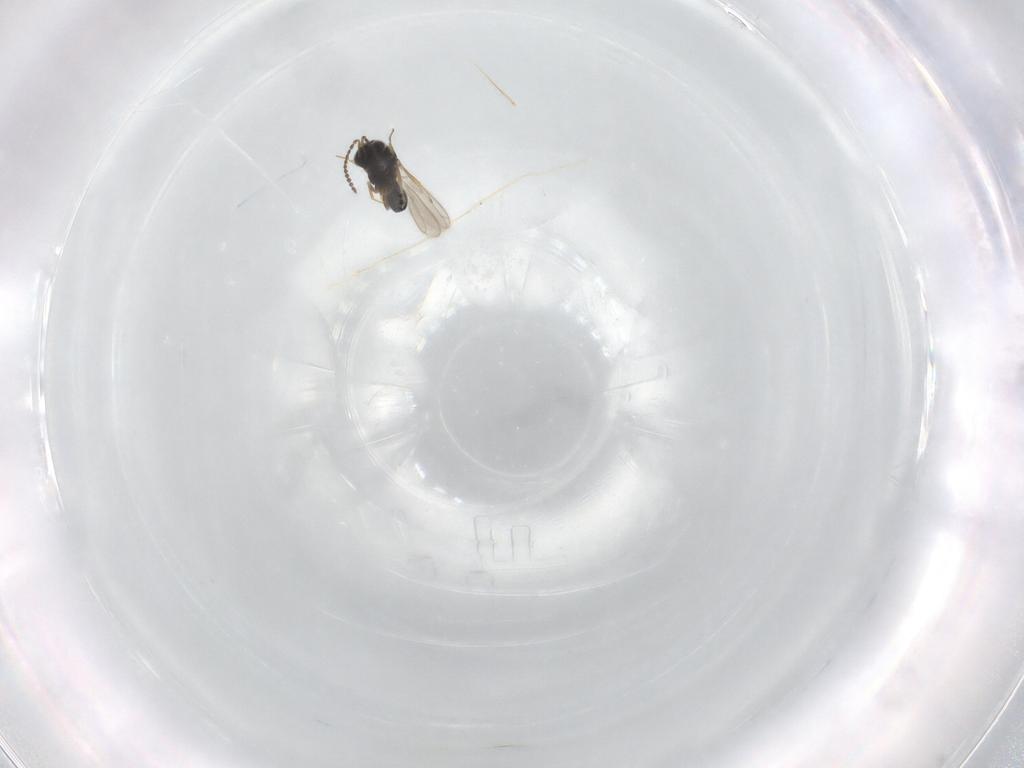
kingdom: Animalia
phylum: Arthropoda
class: Insecta
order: Hymenoptera
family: Scelionidae
